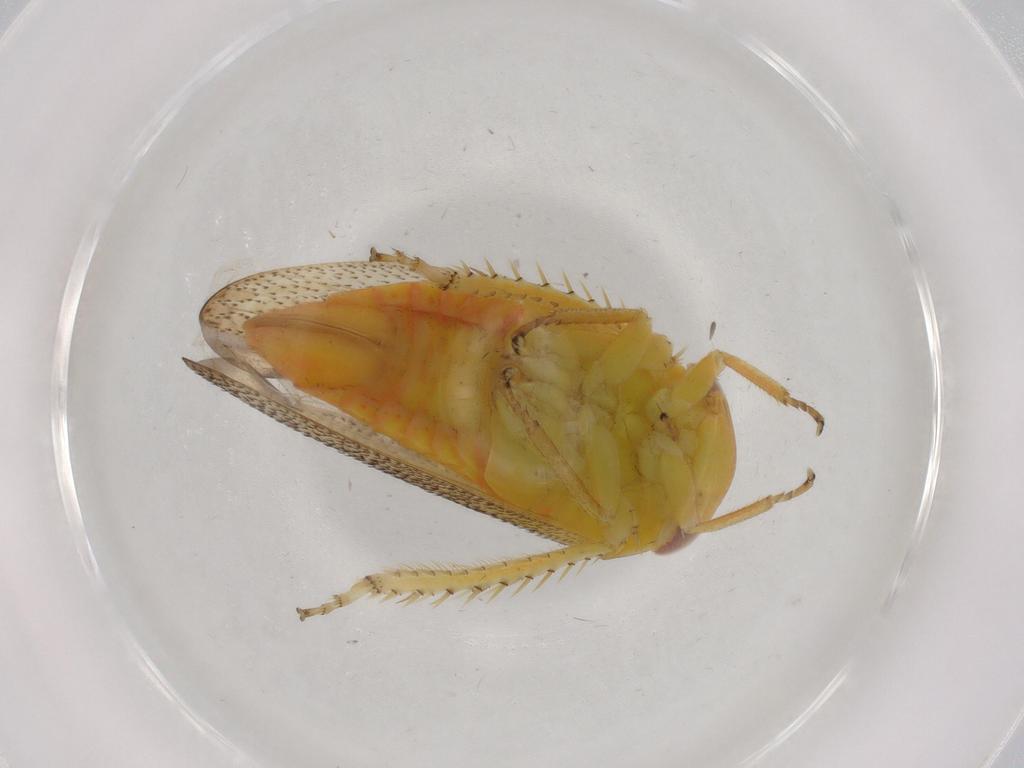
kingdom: Animalia
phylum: Arthropoda
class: Insecta
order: Hemiptera
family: Cicadellidae
